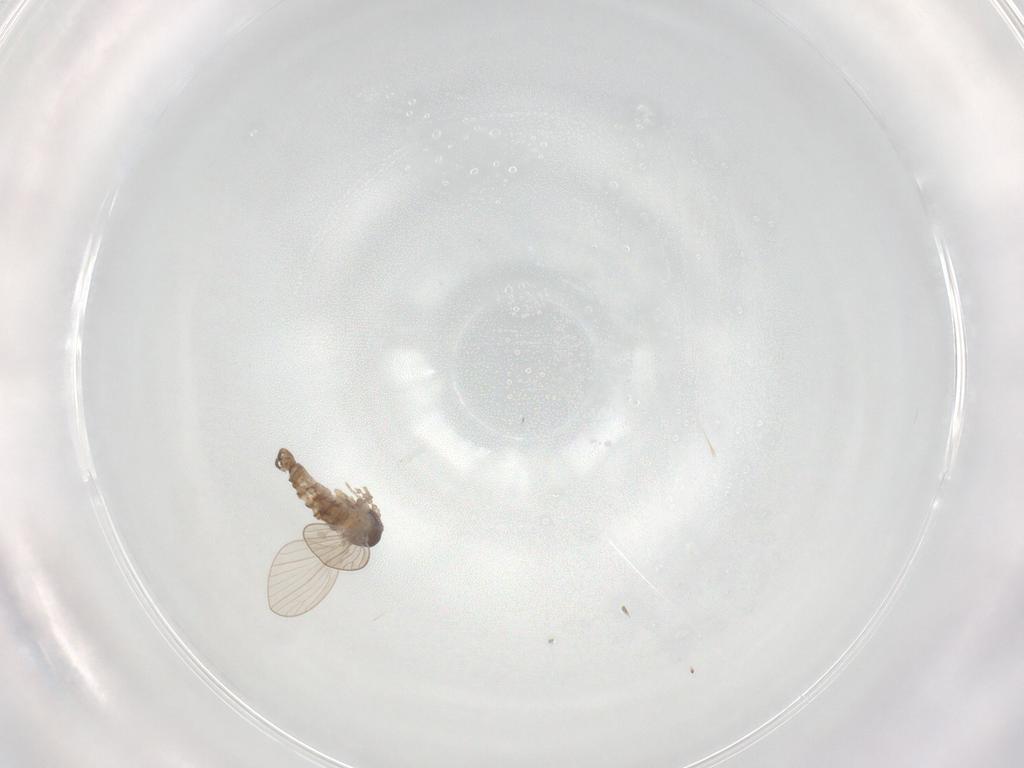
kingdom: Animalia
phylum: Arthropoda
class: Insecta
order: Diptera
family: Psychodidae
